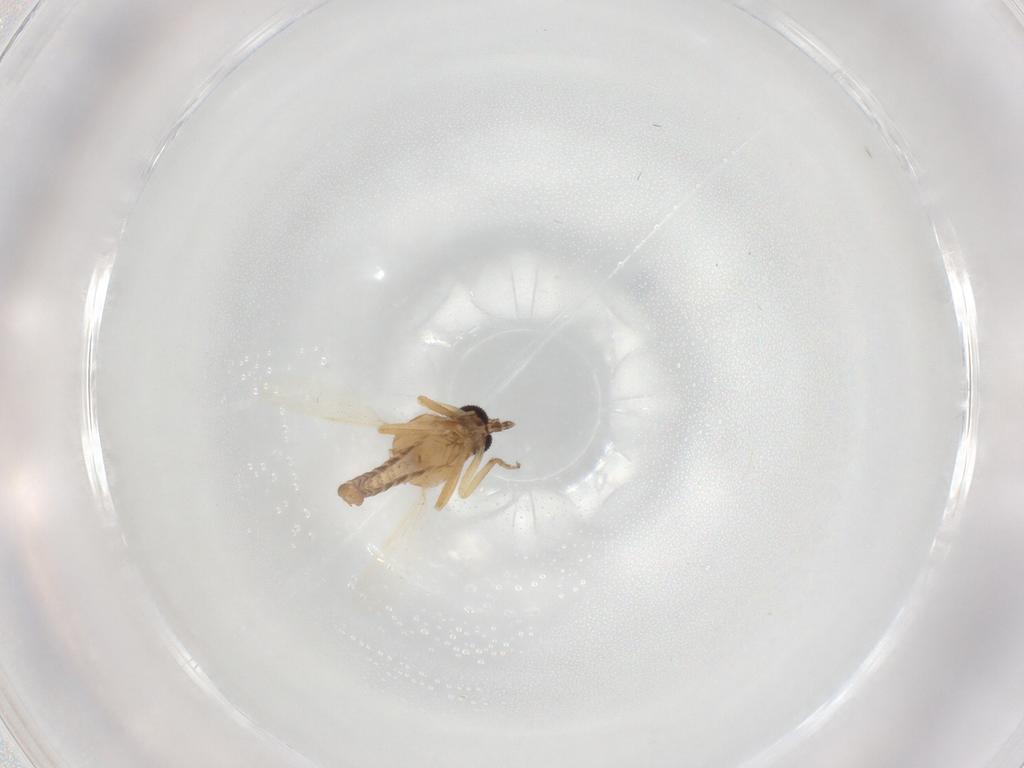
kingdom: Animalia
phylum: Arthropoda
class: Insecta
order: Diptera
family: Ceratopogonidae
